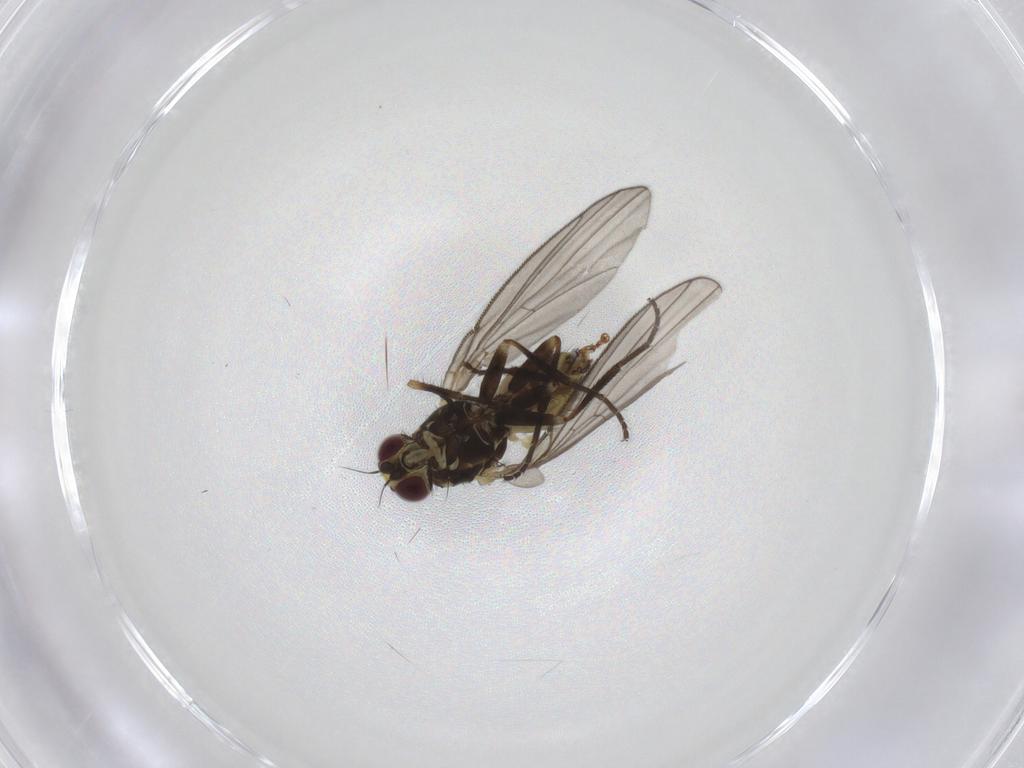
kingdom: Animalia
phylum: Arthropoda
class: Insecta
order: Diptera
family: Agromyzidae
